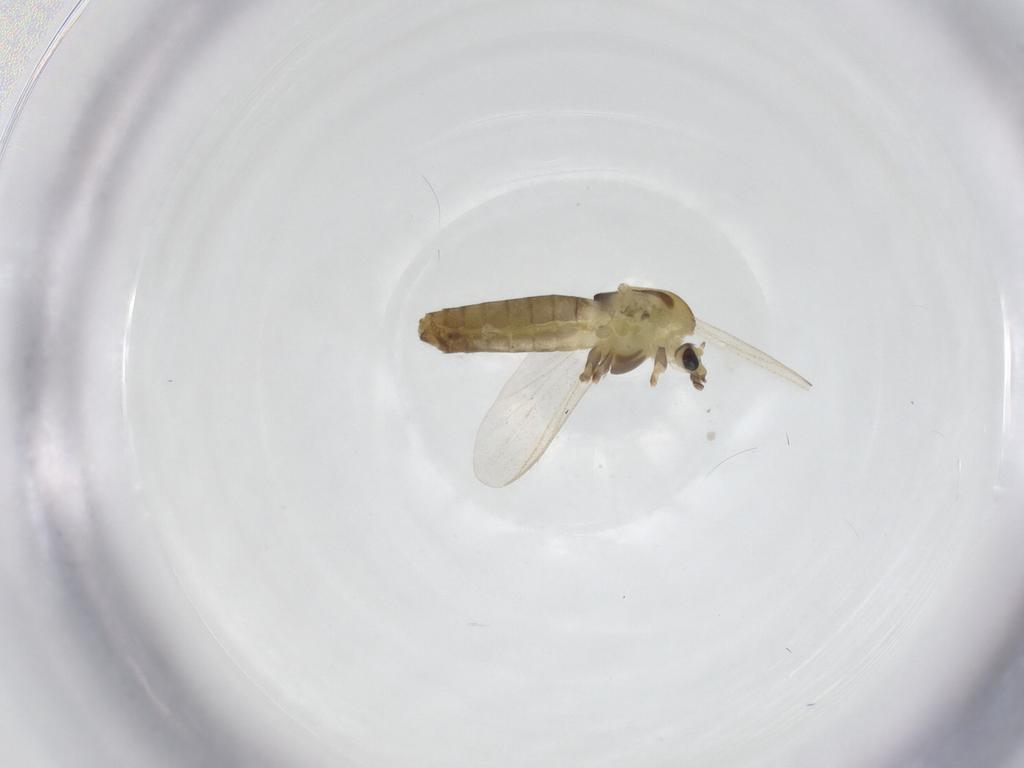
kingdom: Animalia
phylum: Arthropoda
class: Insecta
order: Diptera
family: Chironomidae
